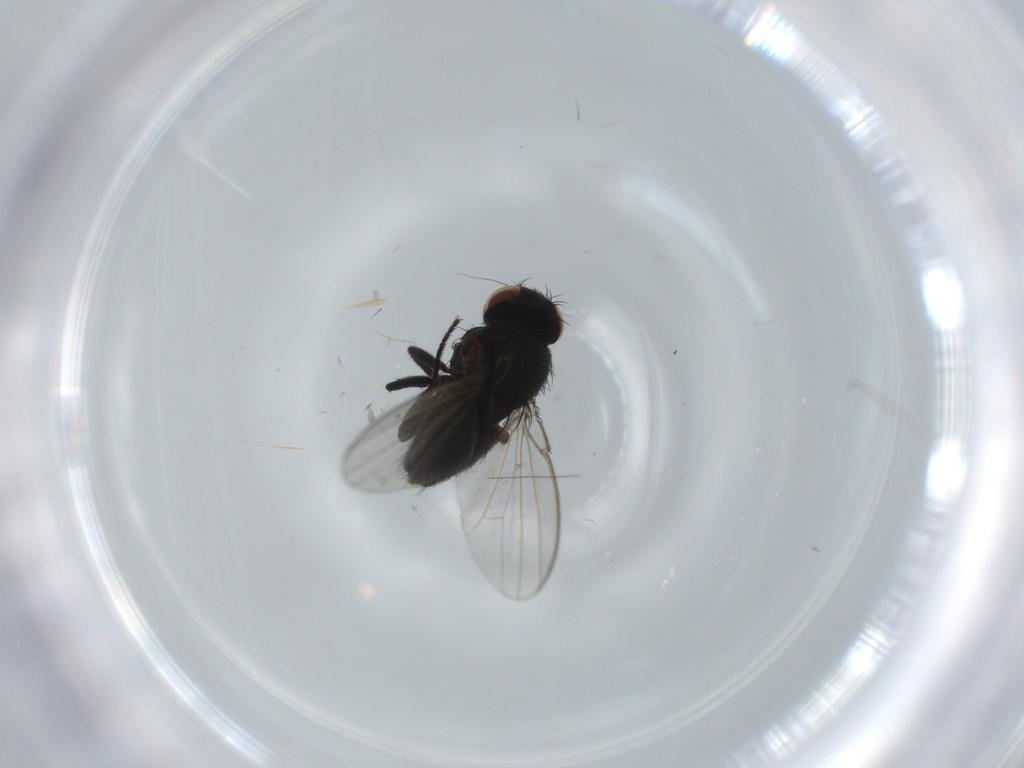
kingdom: Animalia
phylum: Arthropoda
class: Insecta
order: Diptera
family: Milichiidae
